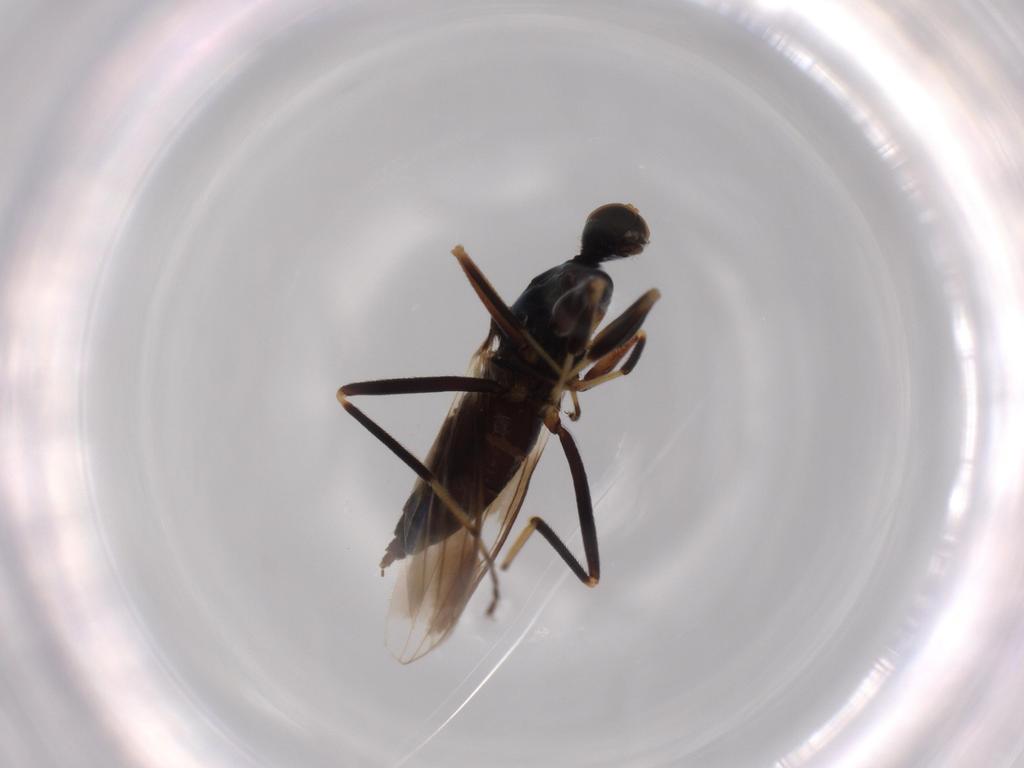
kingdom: Animalia
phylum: Arthropoda
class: Insecta
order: Diptera
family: Hybotidae
